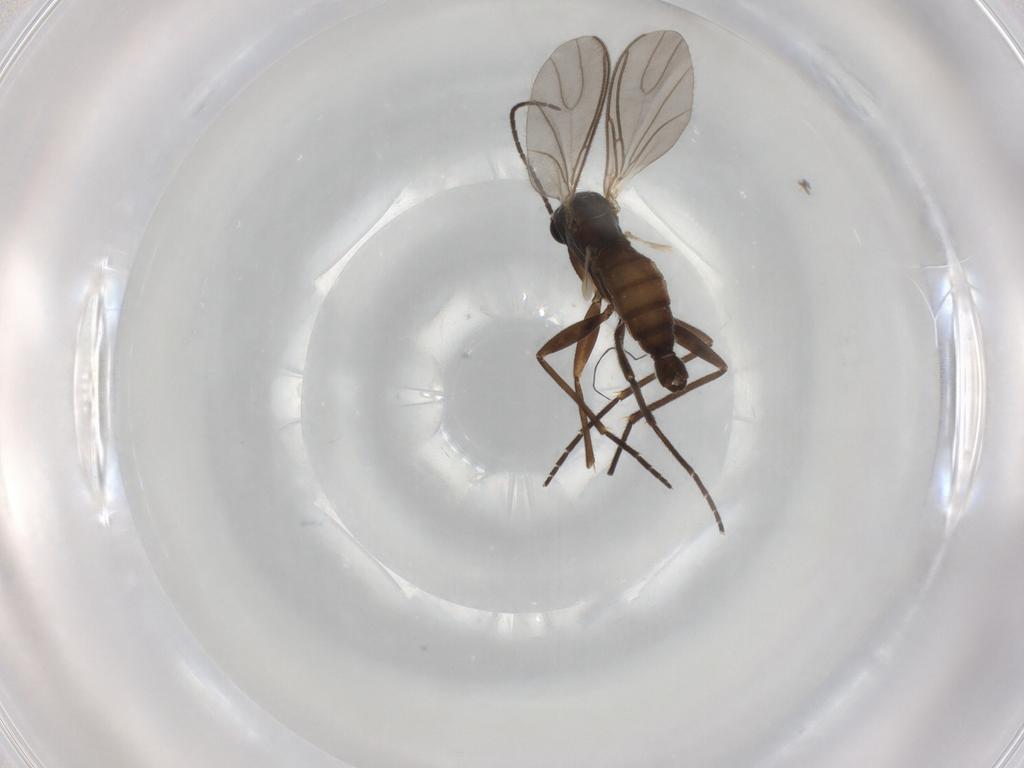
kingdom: Animalia
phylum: Arthropoda
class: Insecta
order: Diptera
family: Sciaridae
